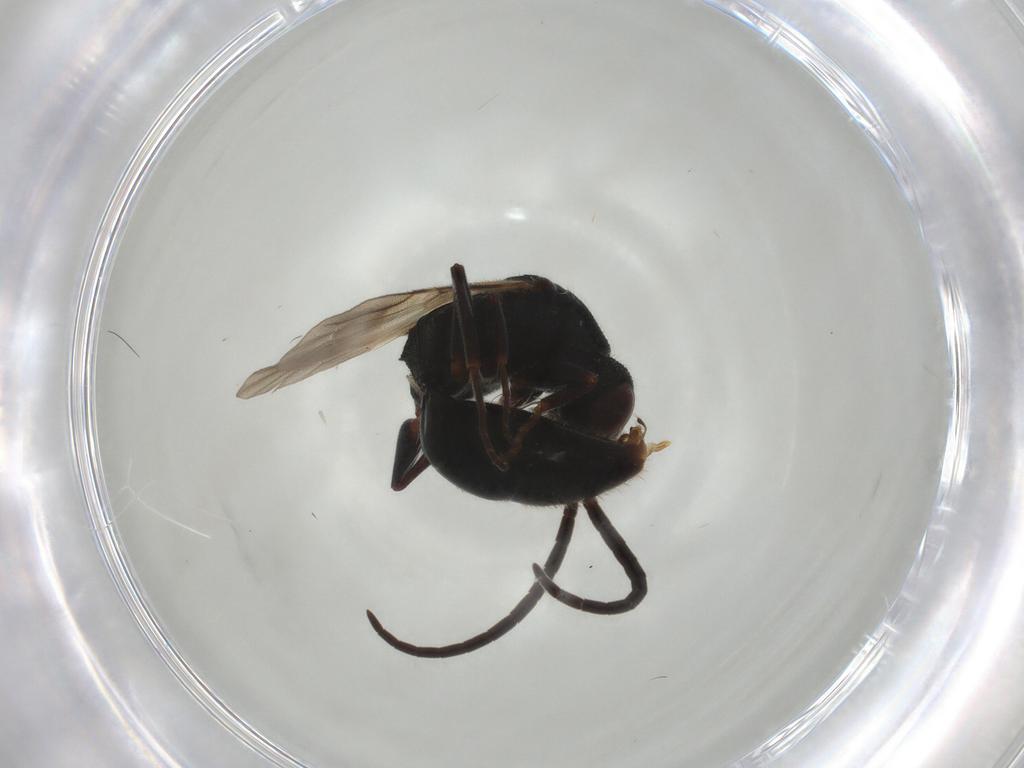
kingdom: Animalia
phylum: Arthropoda
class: Insecta
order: Hymenoptera
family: Bethylidae
